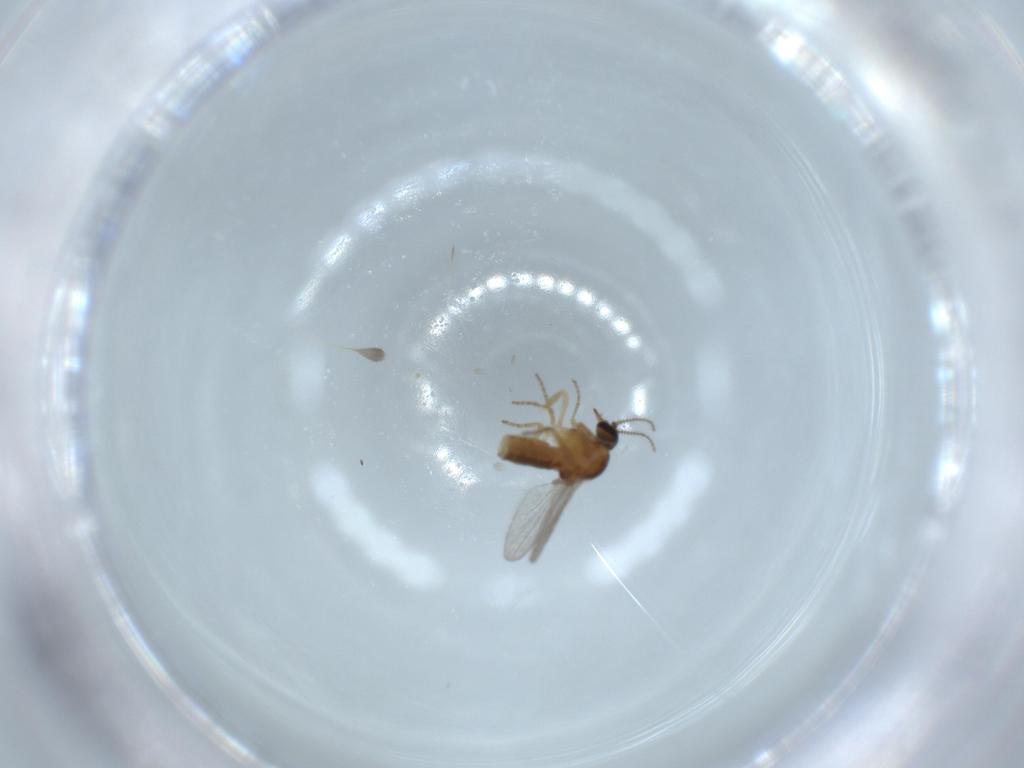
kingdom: Animalia
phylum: Arthropoda
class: Insecta
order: Diptera
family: Ceratopogonidae
